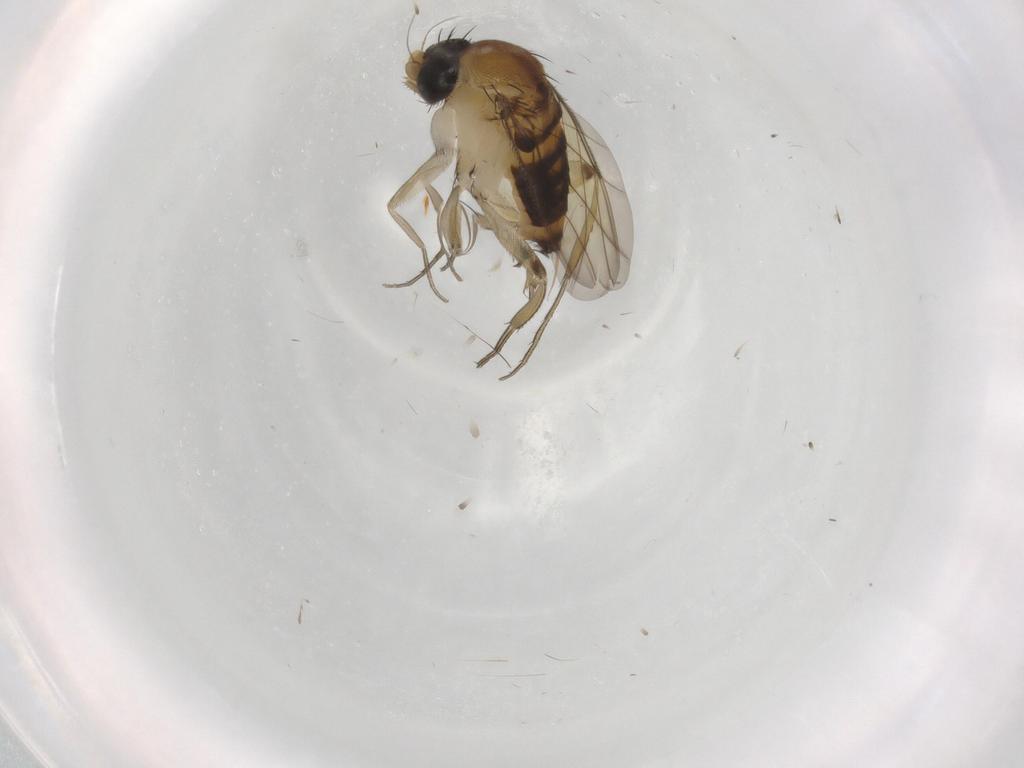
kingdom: Animalia
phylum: Arthropoda
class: Insecta
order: Diptera
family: Phoridae
